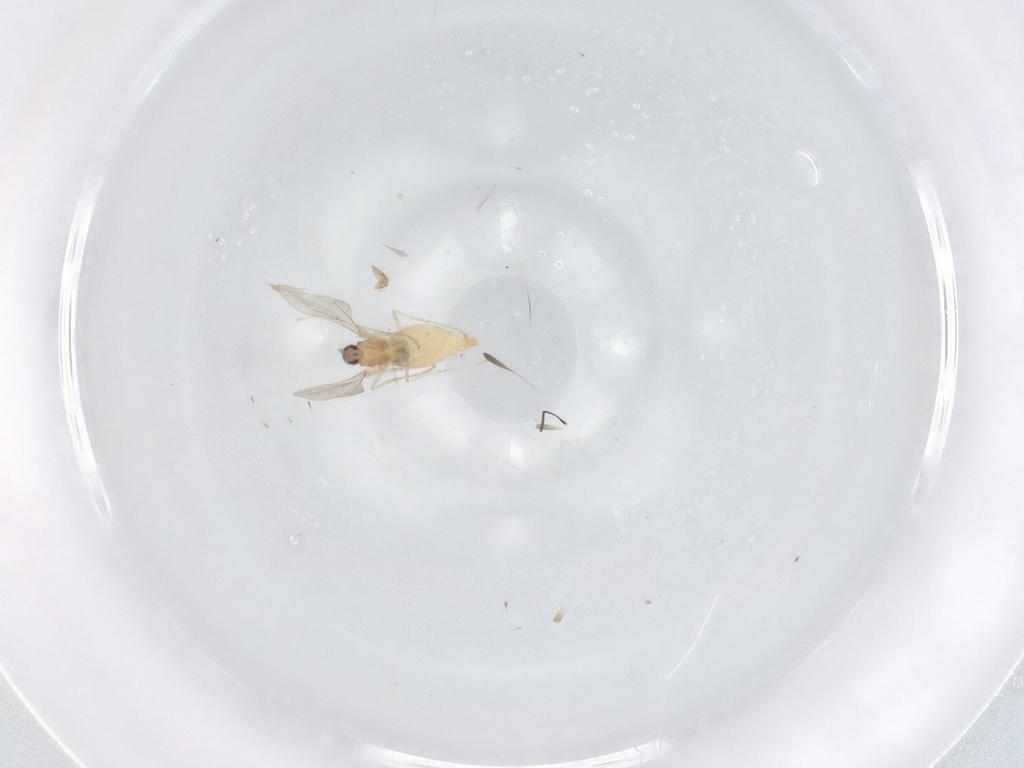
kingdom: Animalia
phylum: Arthropoda
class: Insecta
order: Diptera
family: Cecidomyiidae
